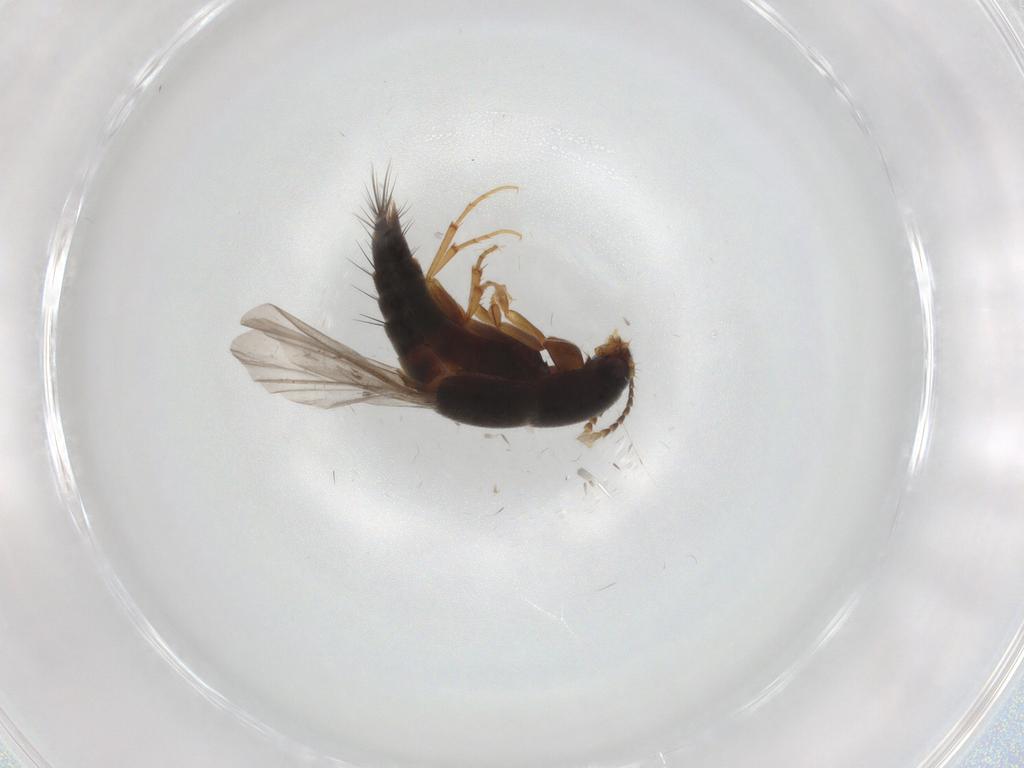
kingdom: Animalia
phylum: Arthropoda
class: Insecta
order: Coleoptera
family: Staphylinidae
